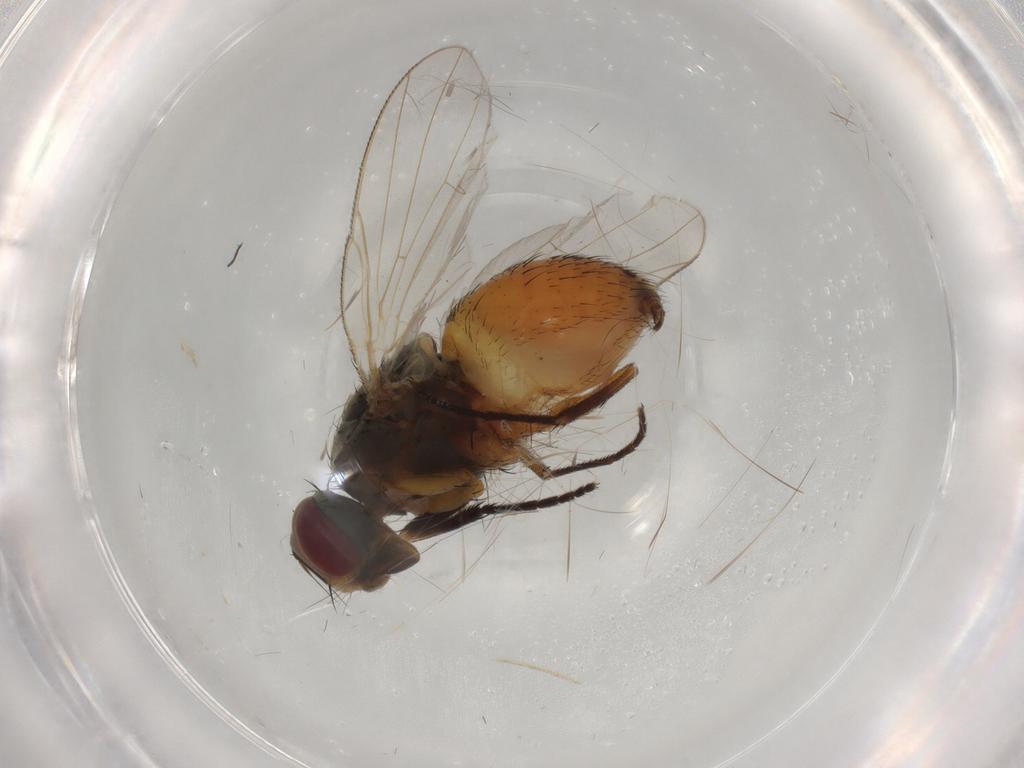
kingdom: Animalia
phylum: Arthropoda
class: Insecta
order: Diptera
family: Muscidae
